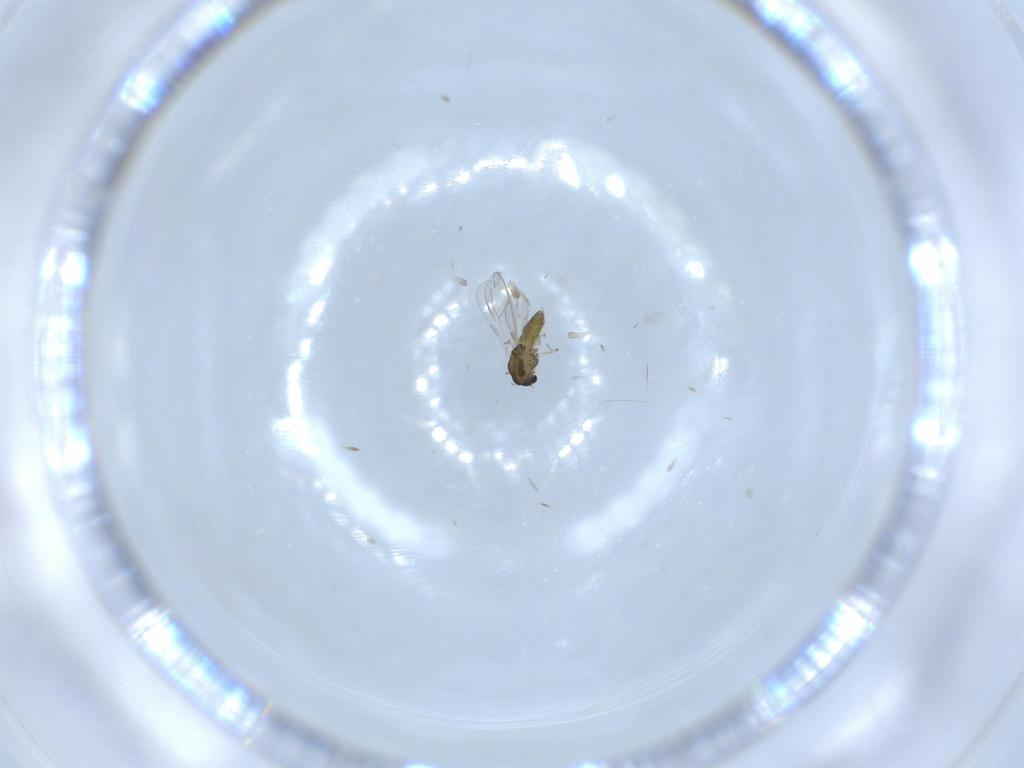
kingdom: Animalia
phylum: Arthropoda
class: Insecta
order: Diptera
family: Chironomidae
